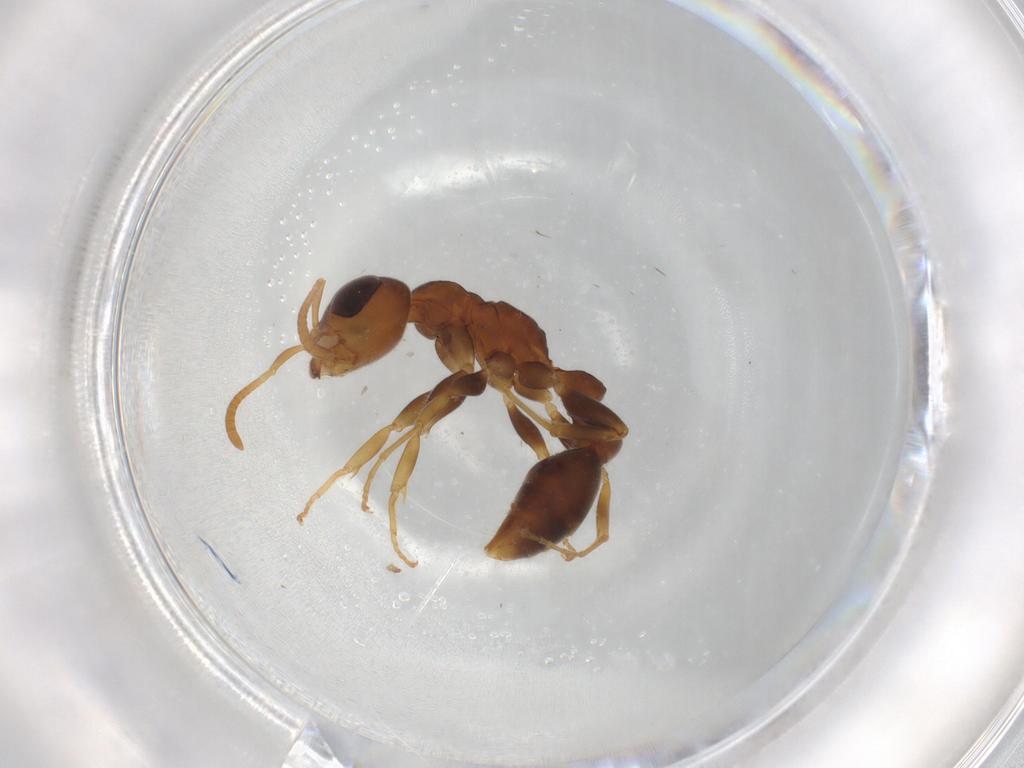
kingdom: Animalia
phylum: Arthropoda
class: Insecta
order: Hymenoptera
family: Formicidae
